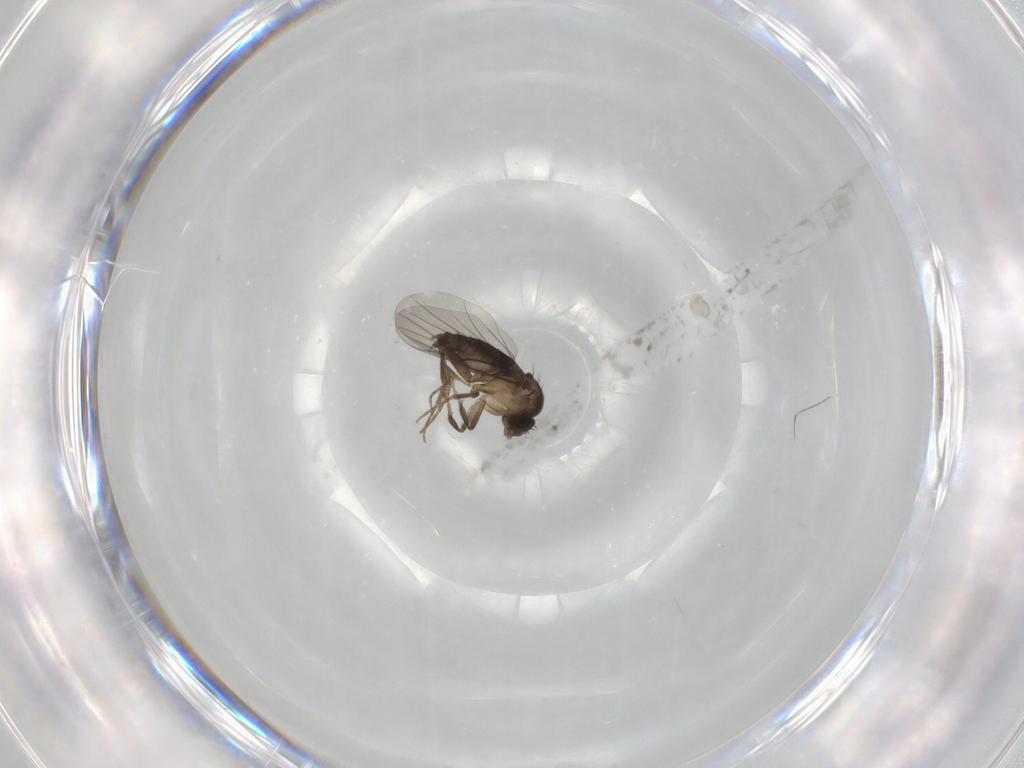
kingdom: Animalia
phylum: Arthropoda
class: Insecta
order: Diptera
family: Phoridae
